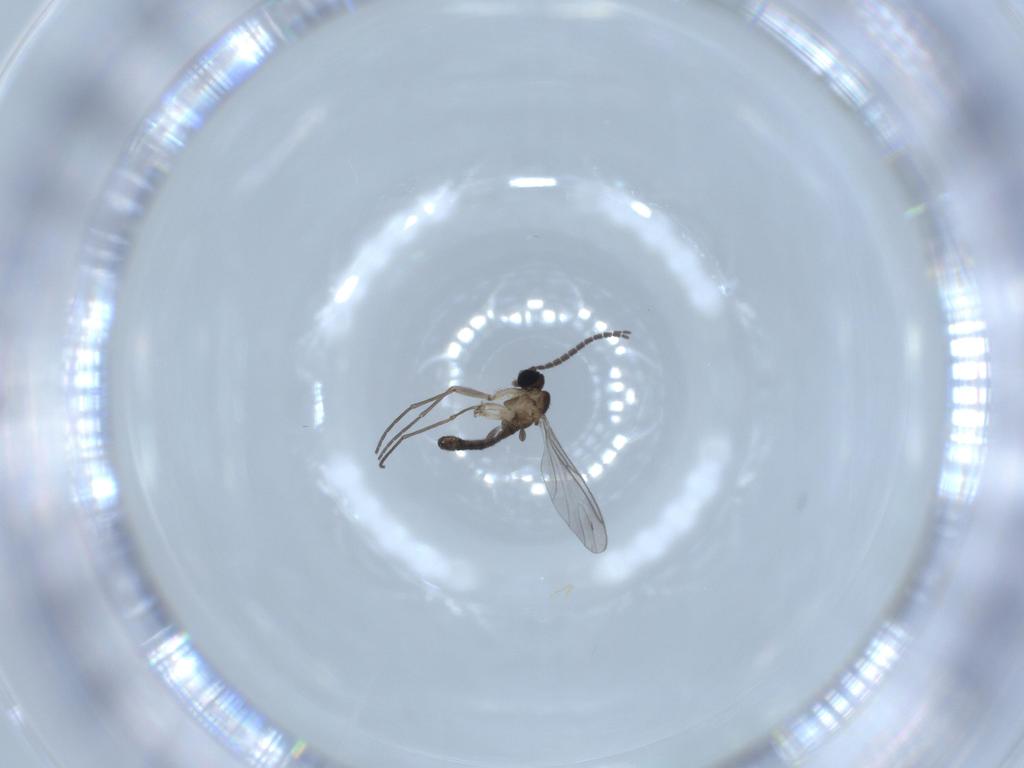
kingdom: Animalia
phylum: Arthropoda
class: Insecta
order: Diptera
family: Sciaridae
